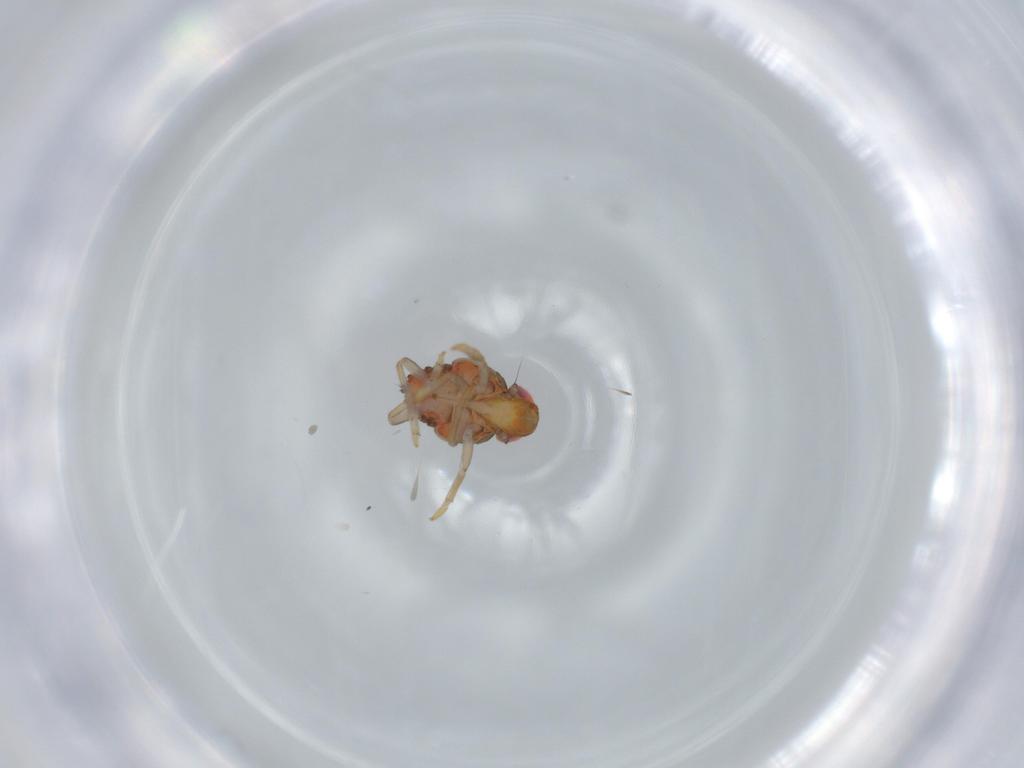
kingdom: Animalia
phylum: Arthropoda
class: Insecta
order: Hemiptera
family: Issidae
